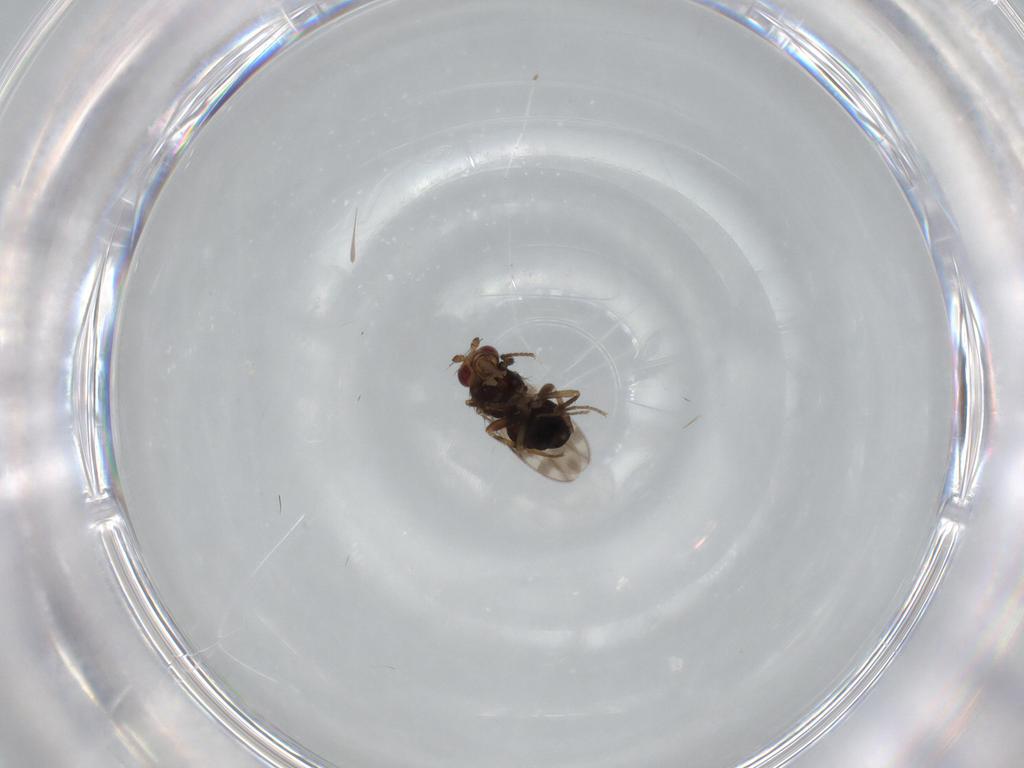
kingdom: Animalia
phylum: Arthropoda
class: Insecta
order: Diptera
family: Sphaeroceridae
